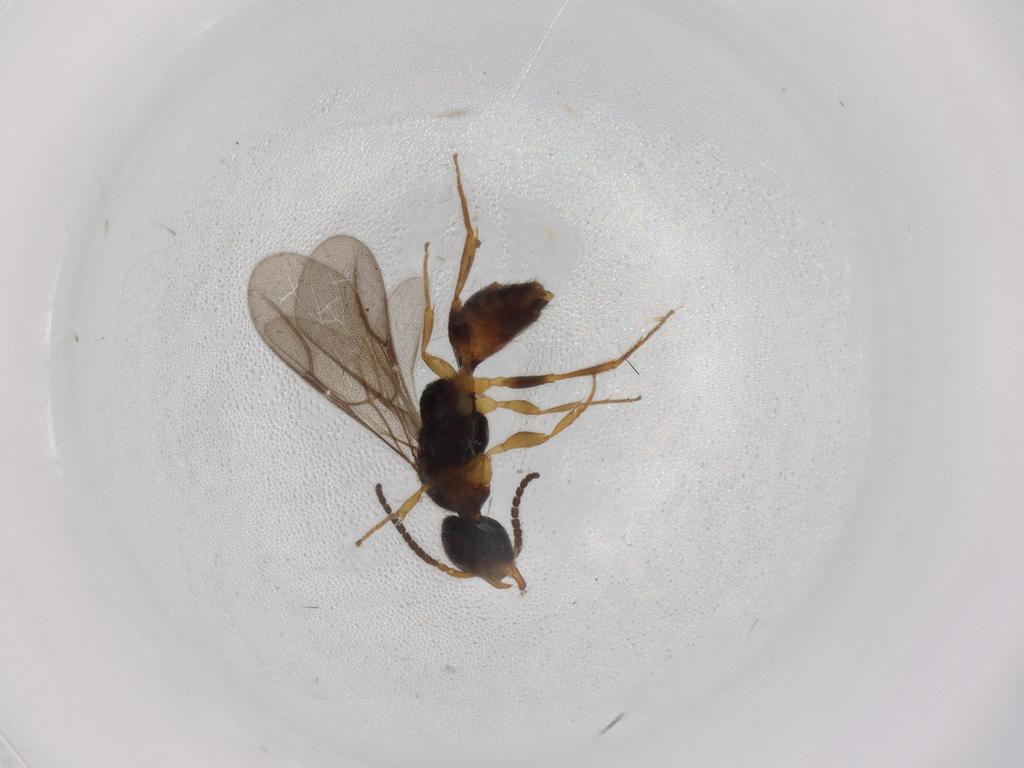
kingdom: Animalia
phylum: Arthropoda
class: Insecta
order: Hymenoptera
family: Bethylidae
